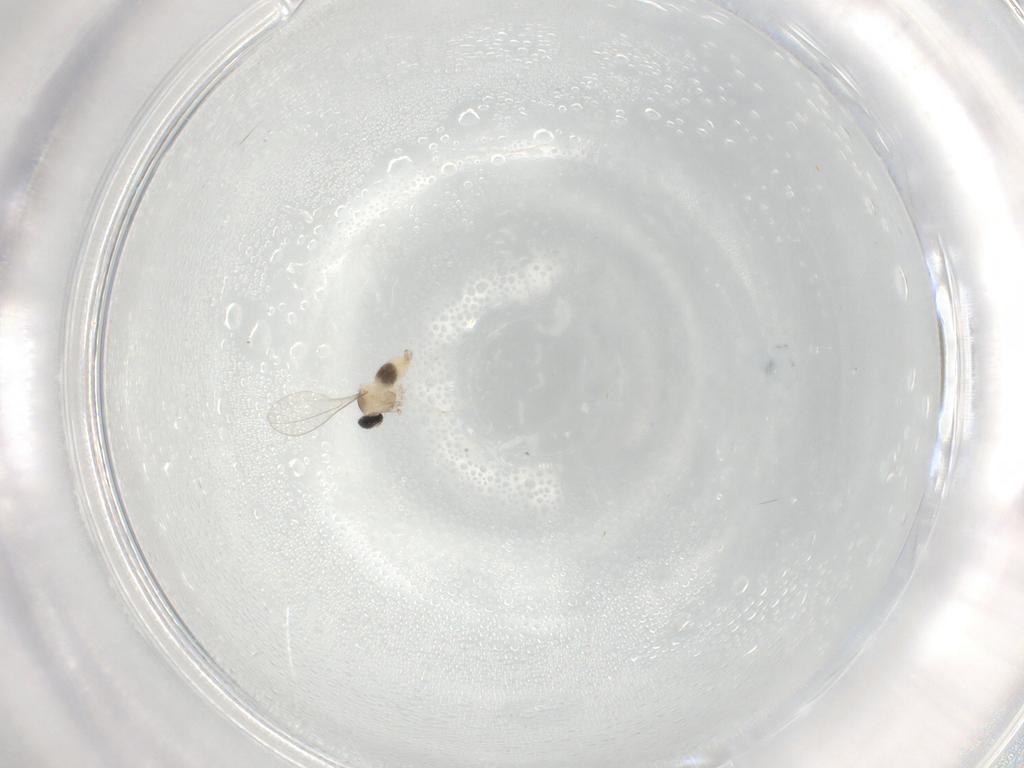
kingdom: Animalia
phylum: Arthropoda
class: Insecta
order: Diptera
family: Cecidomyiidae
